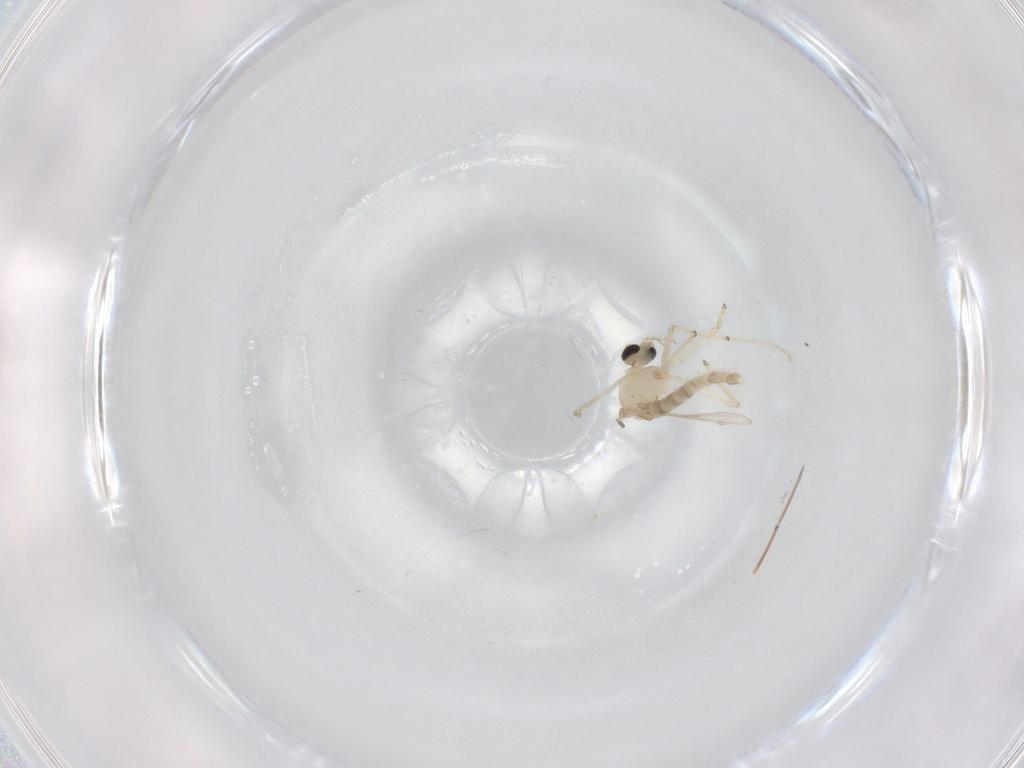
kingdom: Animalia
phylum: Arthropoda
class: Insecta
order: Diptera
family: Chironomidae
